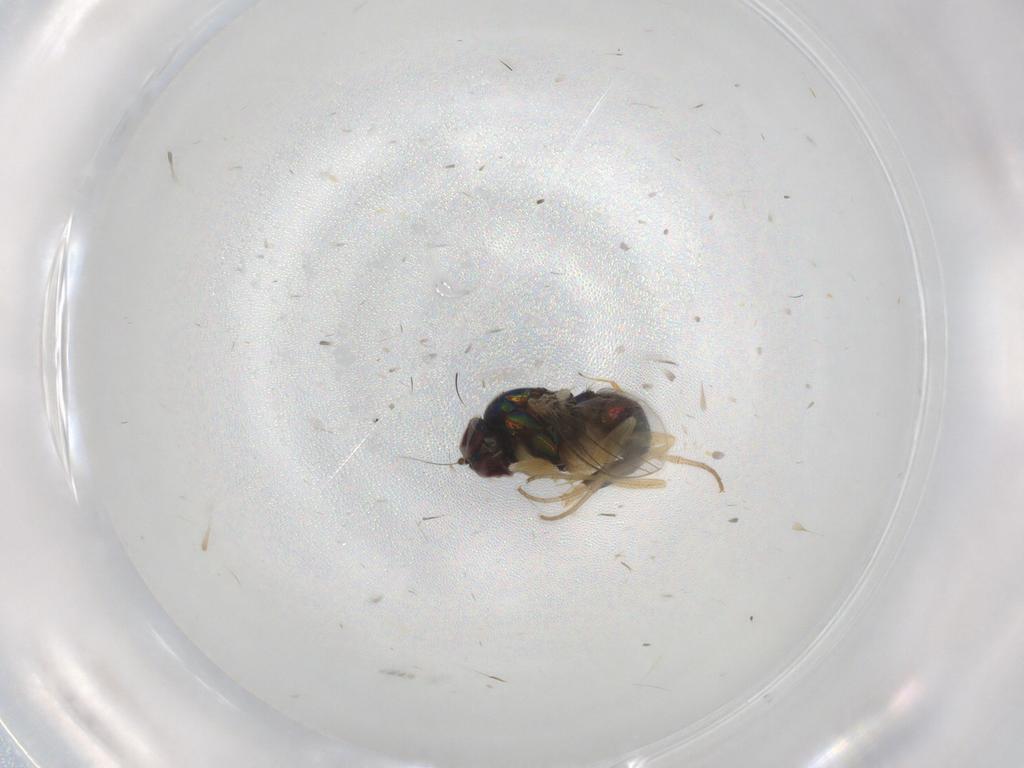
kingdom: Animalia
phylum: Arthropoda
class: Insecta
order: Diptera
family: Dolichopodidae
